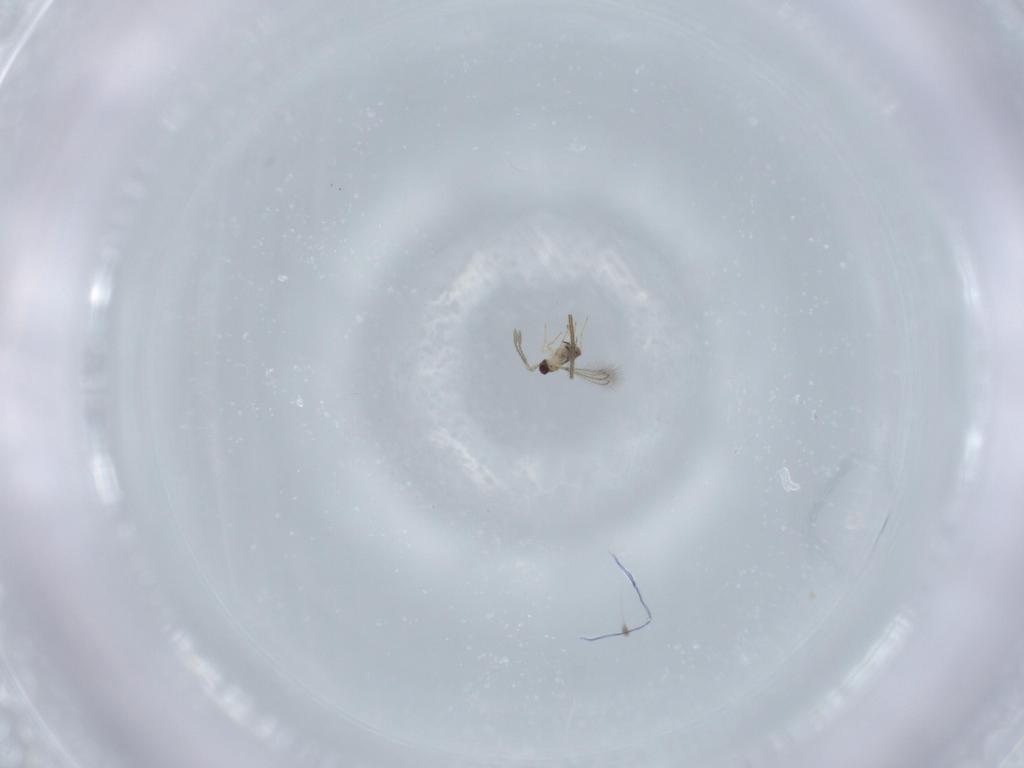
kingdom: Animalia
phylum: Arthropoda
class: Insecta
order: Hymenoptera
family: Mymaridae
